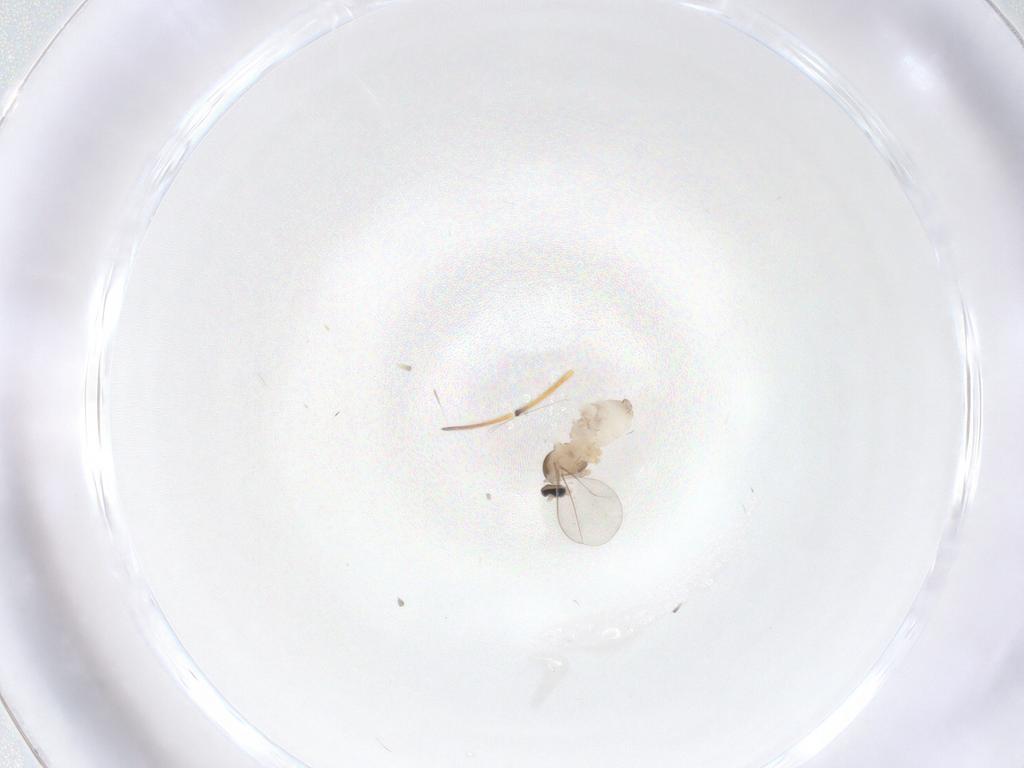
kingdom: Animalia
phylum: Arthropoda
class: Insecta
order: Diptera
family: Cecidomyiidae
